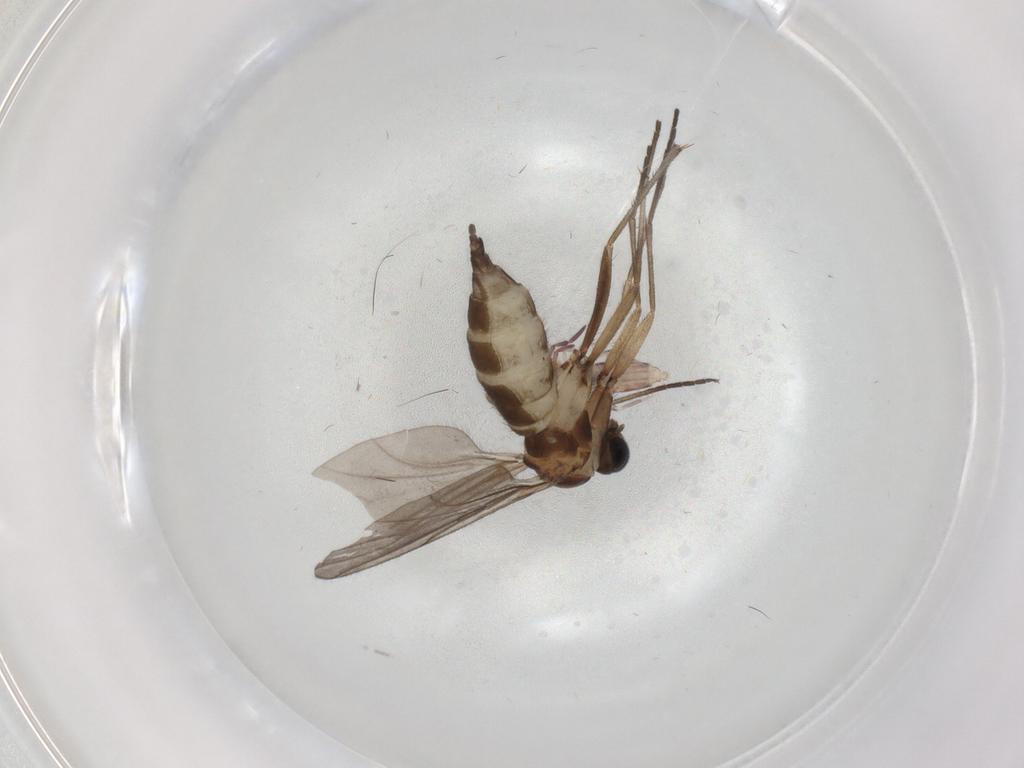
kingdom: Animalia
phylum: Arthropoda
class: Insecta
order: Diptera
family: Sciaridae
